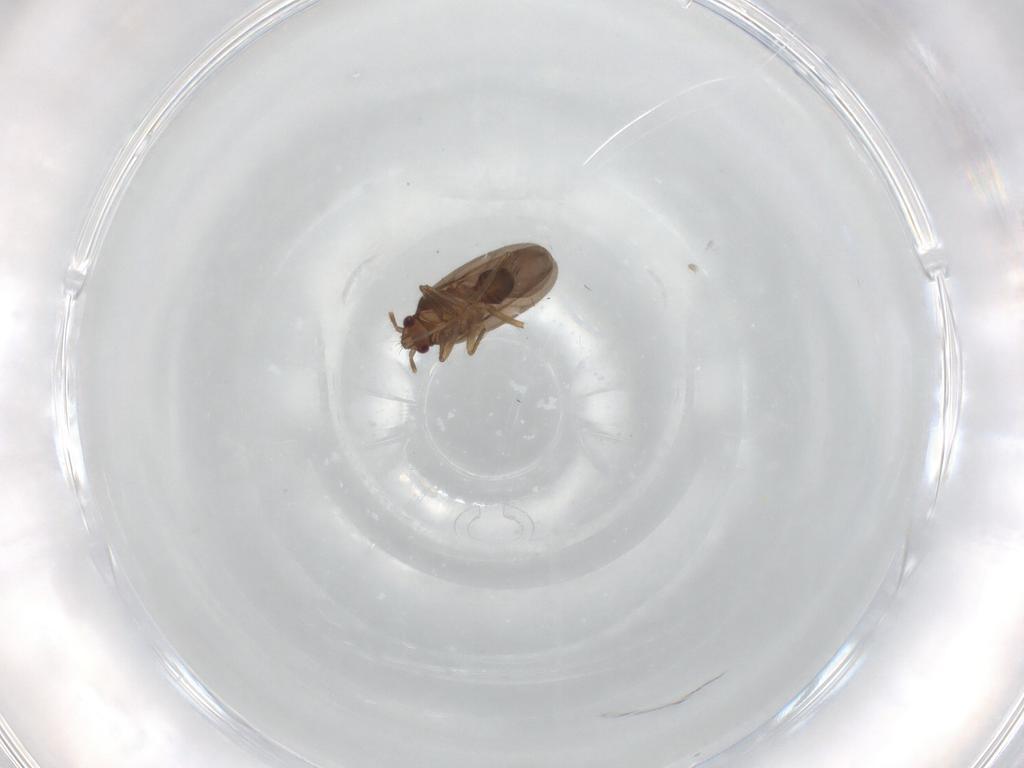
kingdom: Animalia
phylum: Arthropoda
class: Insecta
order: Hemiptera
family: Ceratocombidae
